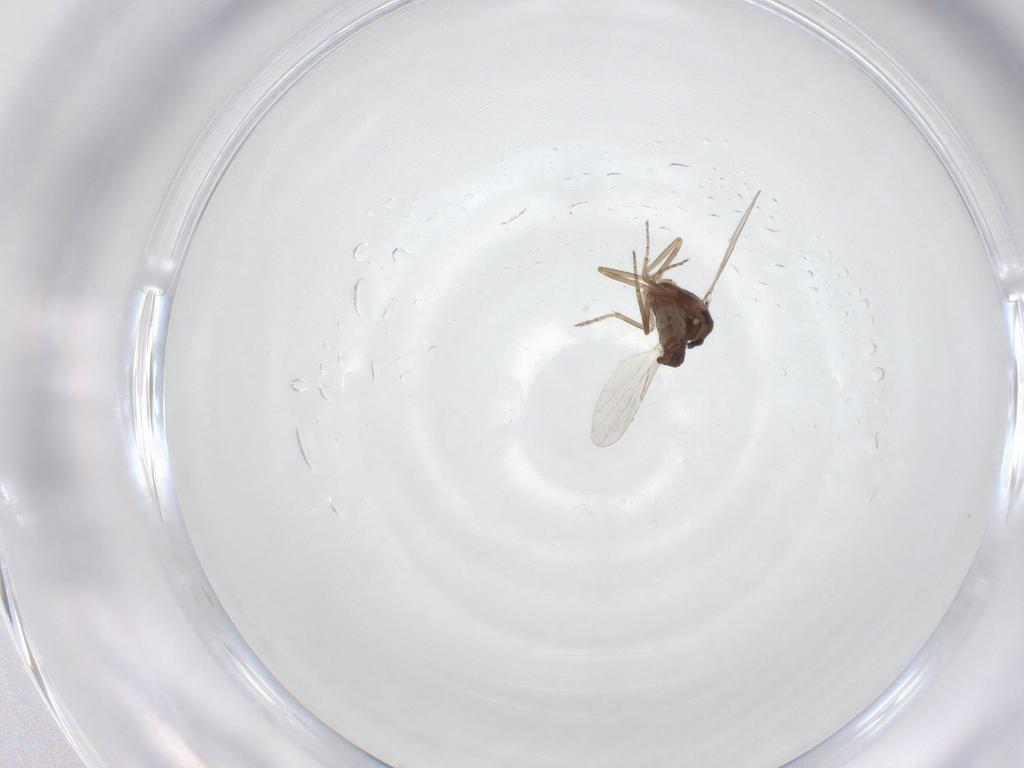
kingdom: Animalia
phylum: Arthropoda
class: Insecta
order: Diptera
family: Ceratopogonidae
